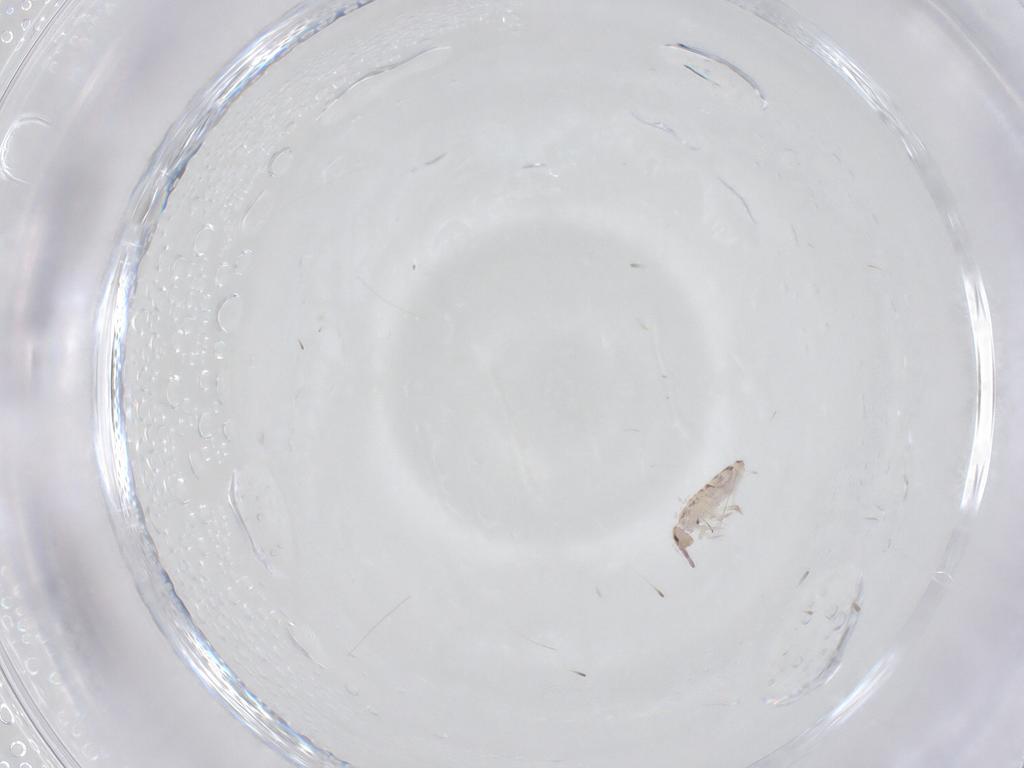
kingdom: Animalia
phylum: Arthropoda
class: Collembola
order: Entomobryomorpha
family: Entomobryidae
